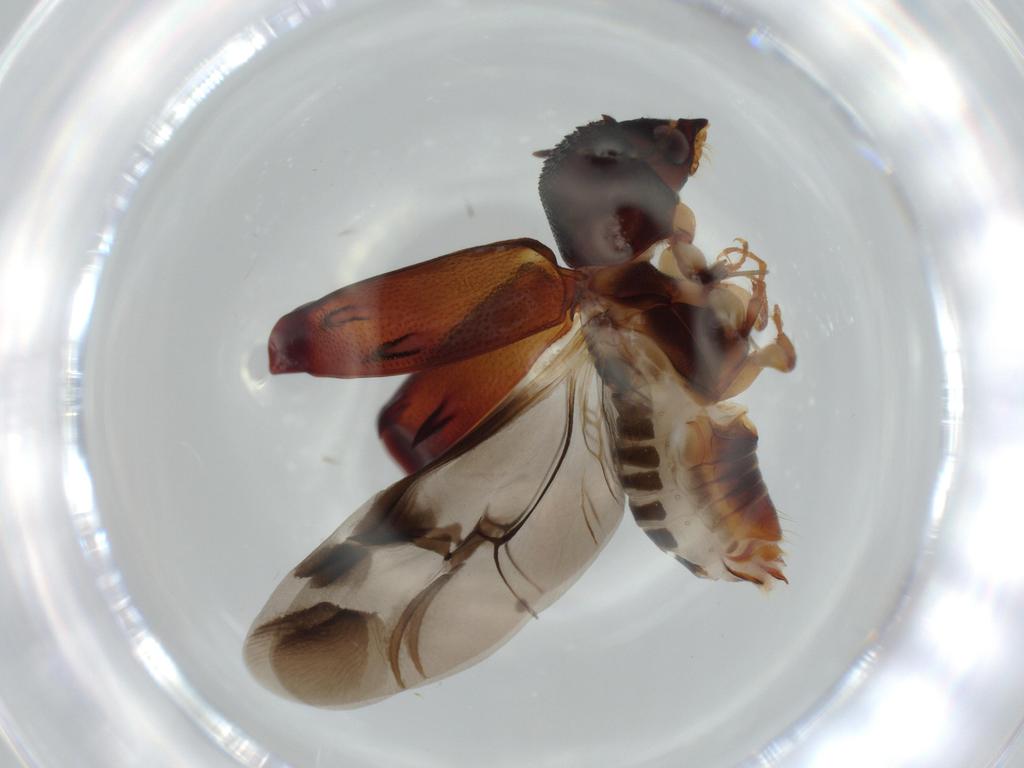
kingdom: Animalia
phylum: Arthropoda
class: Insecta
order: Coleoptera
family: Bostrichidae
